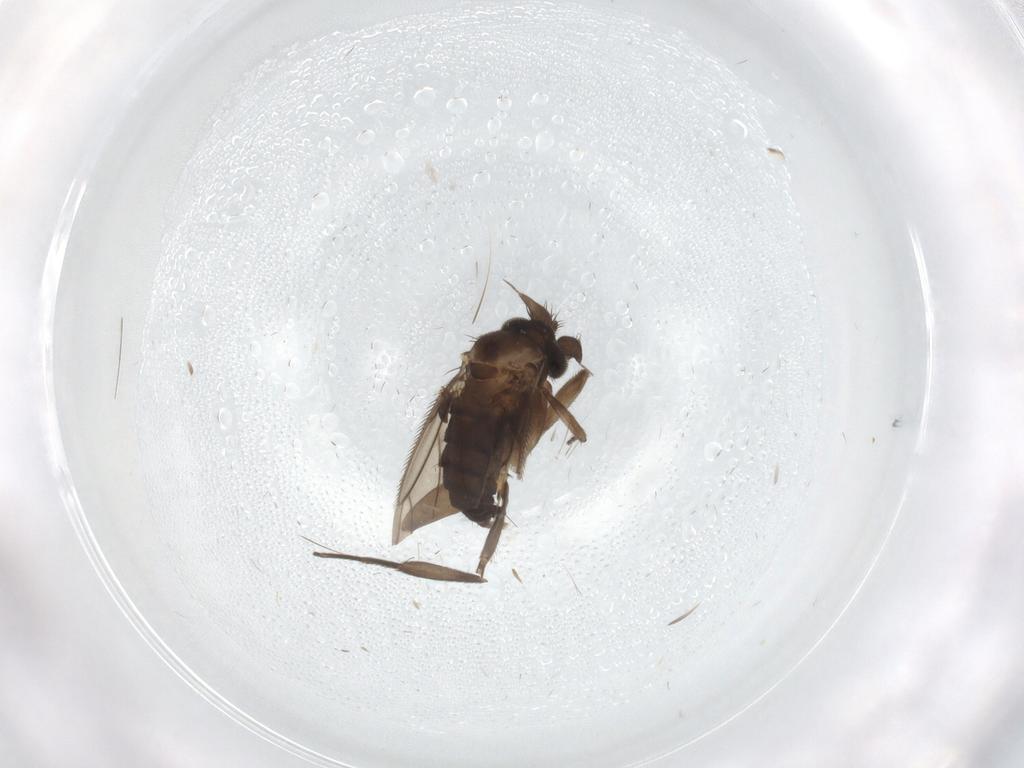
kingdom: Animalia
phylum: Arthropoda
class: Insecta
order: Diptera
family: Phoridae
